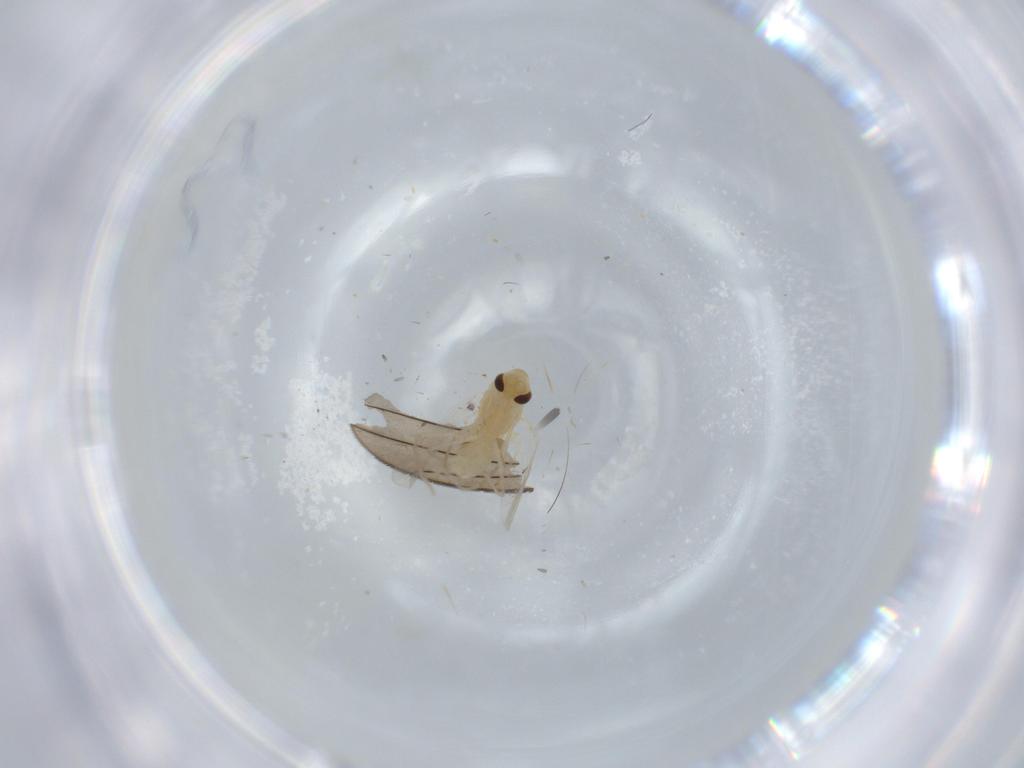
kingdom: Animalia
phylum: Arthropoda
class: Insecta
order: Diptera
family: Chironomidae
